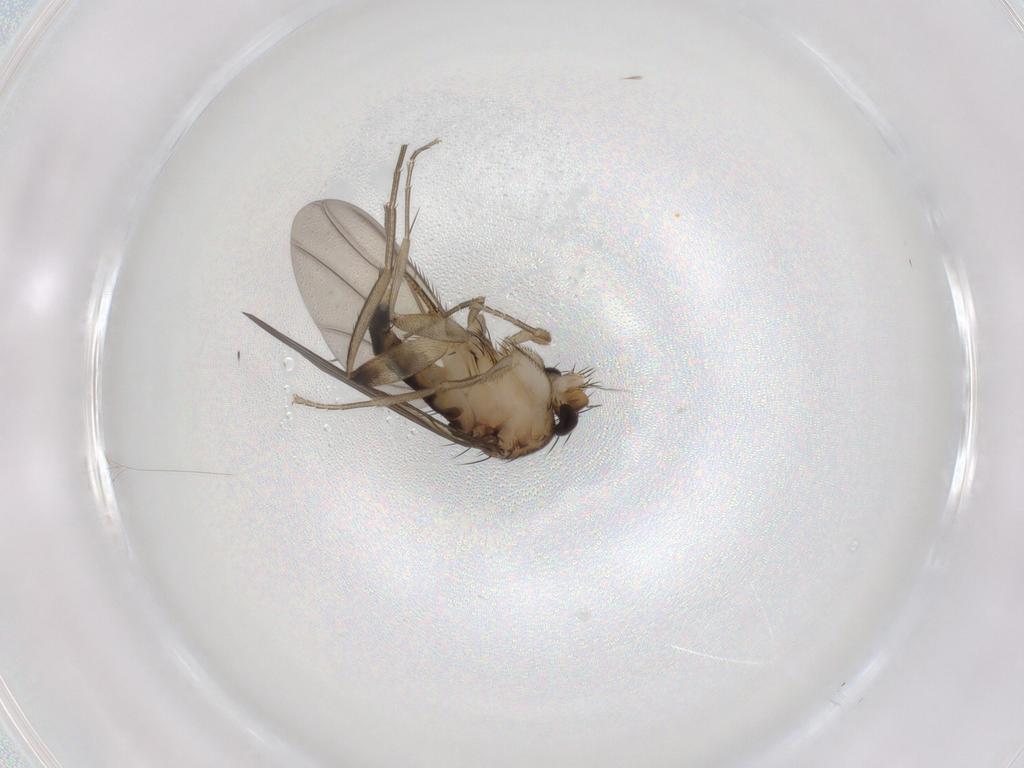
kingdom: Animalia
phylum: Arthropoda
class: Insecta
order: Diptera
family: Phoridae
